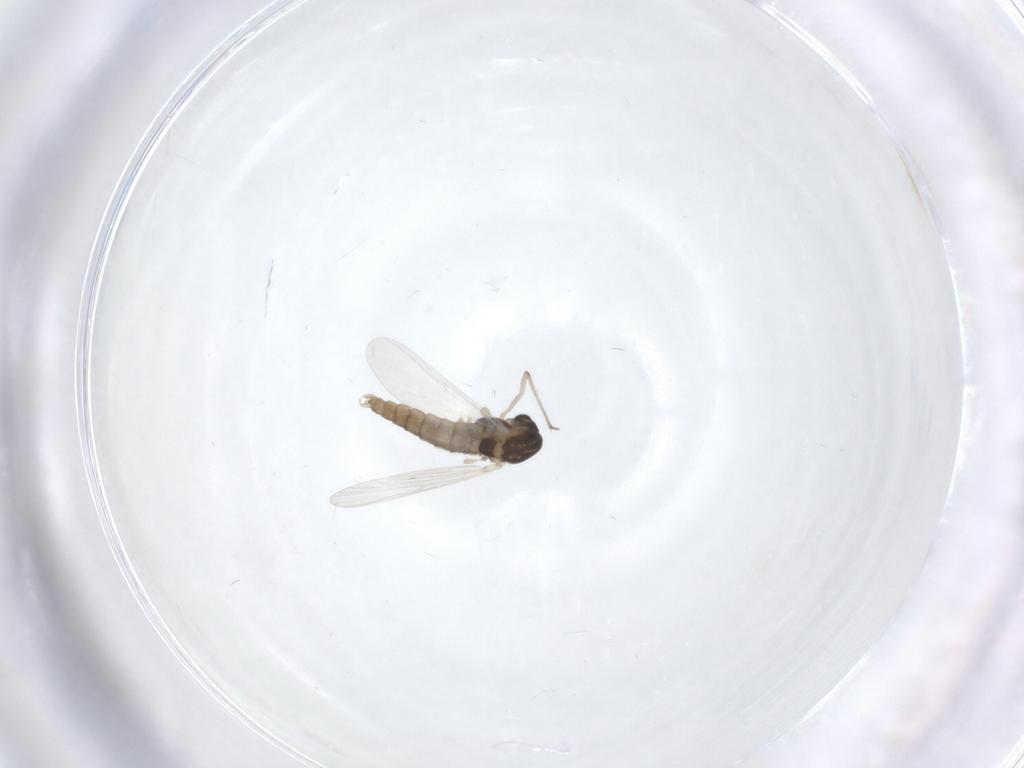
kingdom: Animalia
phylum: Arthropoda
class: Insecta
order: Diptera
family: Chironomidae
